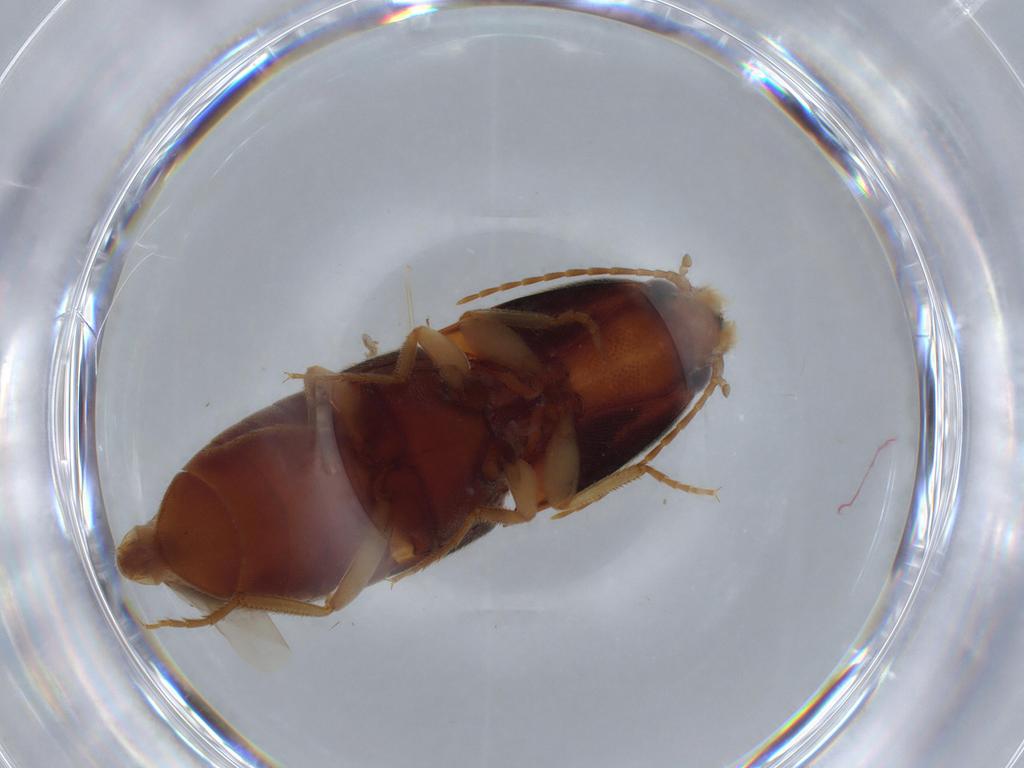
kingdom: Animalia
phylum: Arthropoda
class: Insecta
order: Coleoptera
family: Elateridae
